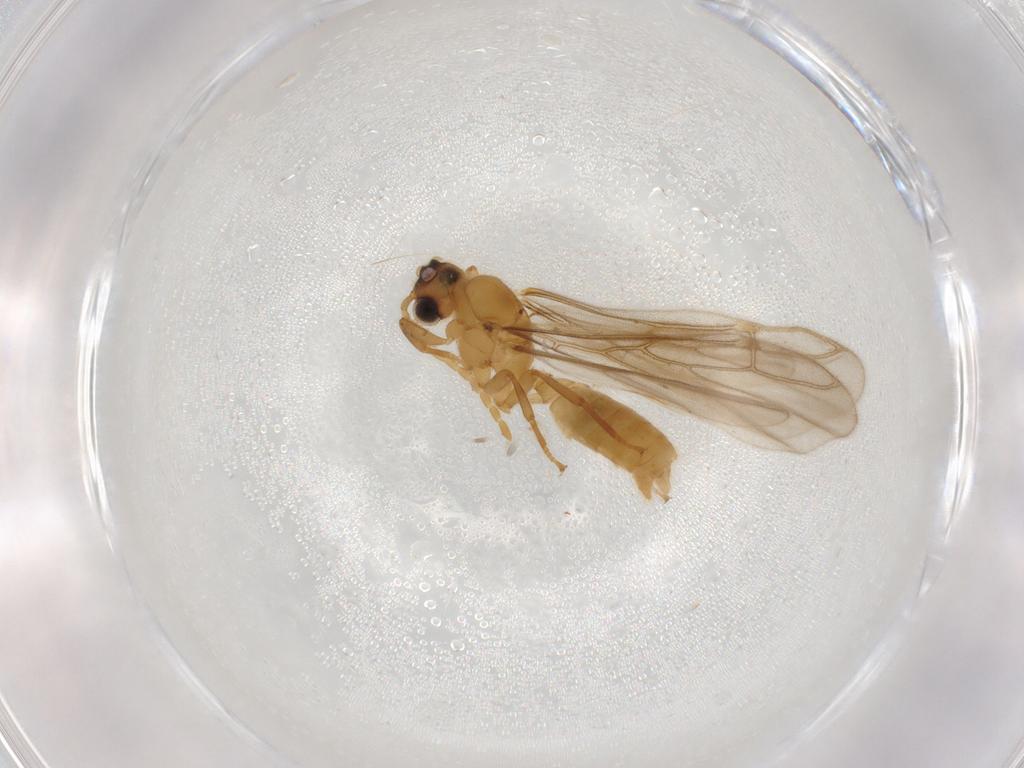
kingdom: Animalia
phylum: Arthropoda
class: Insecta
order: Hymenoptera
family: Formicidae
